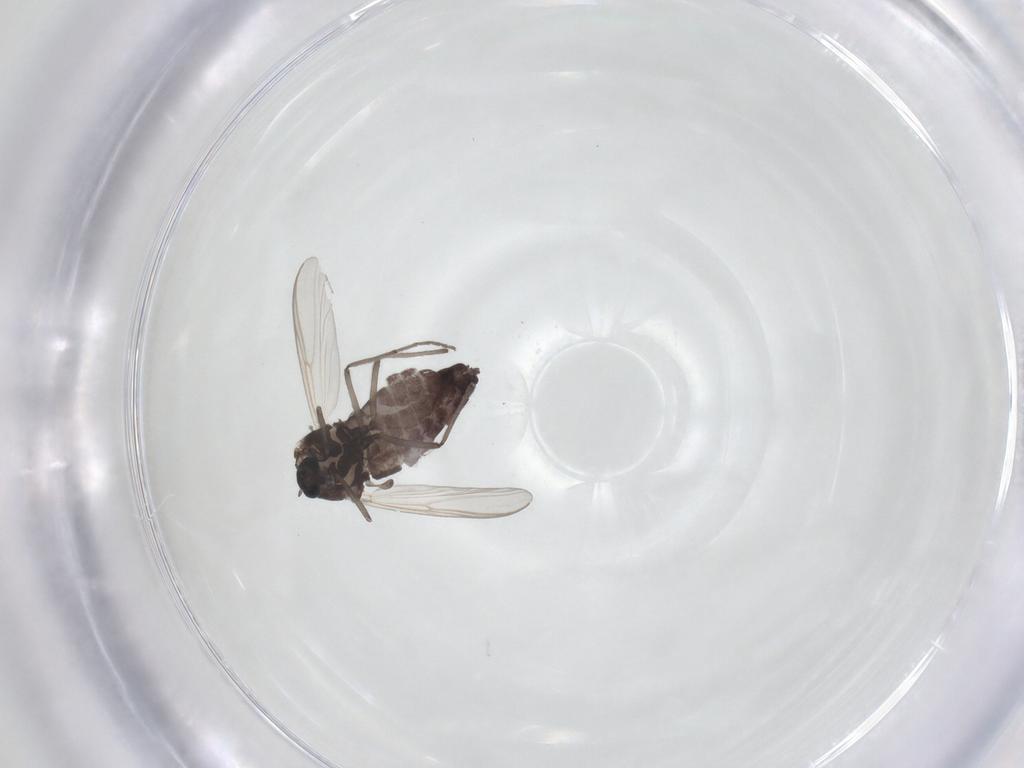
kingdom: Animalia
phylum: Arthropoda
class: Insecta
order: Diptera
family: Chironomidae
